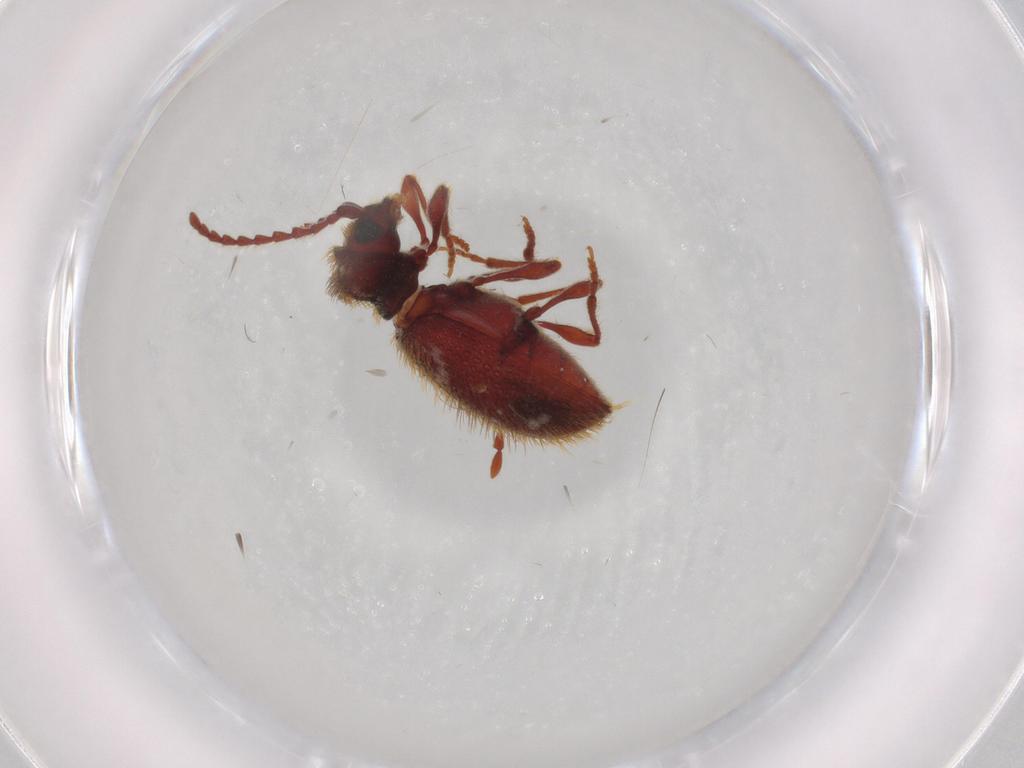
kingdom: Animalia
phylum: Arthropoda
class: Insecta
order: Coleoptera
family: Ptinidae
